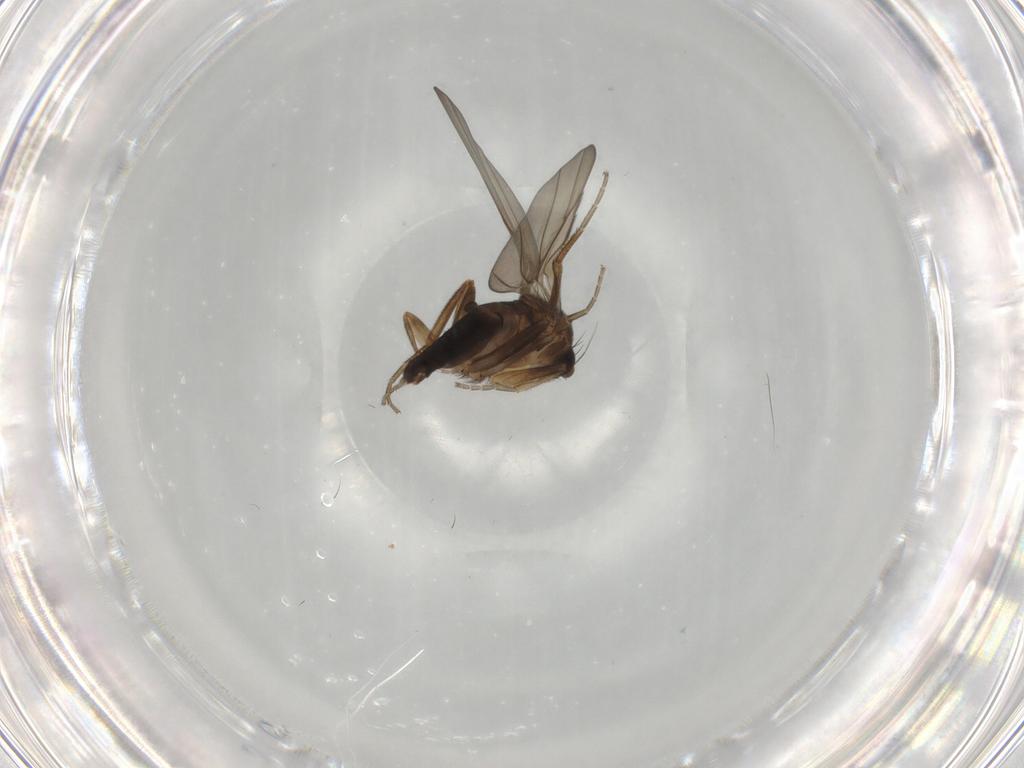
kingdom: Animalia
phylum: Arthropoda
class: Insecta
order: Diptera
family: Phoridae
